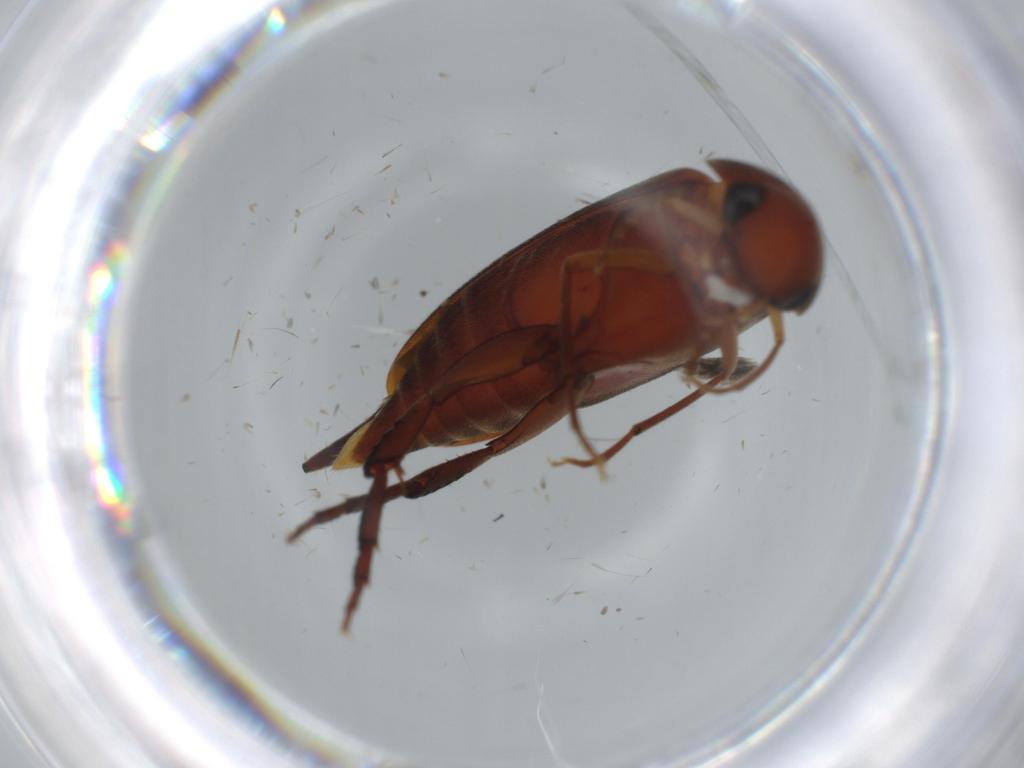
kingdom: Animalia
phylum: Arthropoda
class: Insecta
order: Coleoptera
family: Mordellidae
